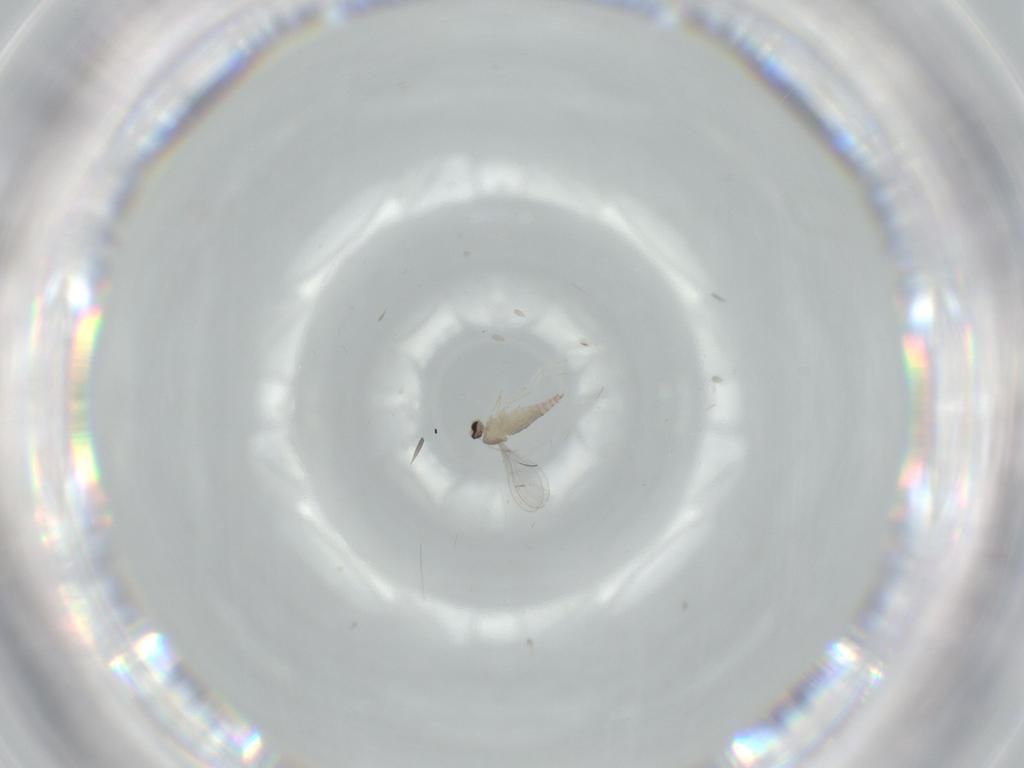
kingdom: Animalia
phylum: Arthropoda
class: Insecta
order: Diptera
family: Cecidomyiidae
